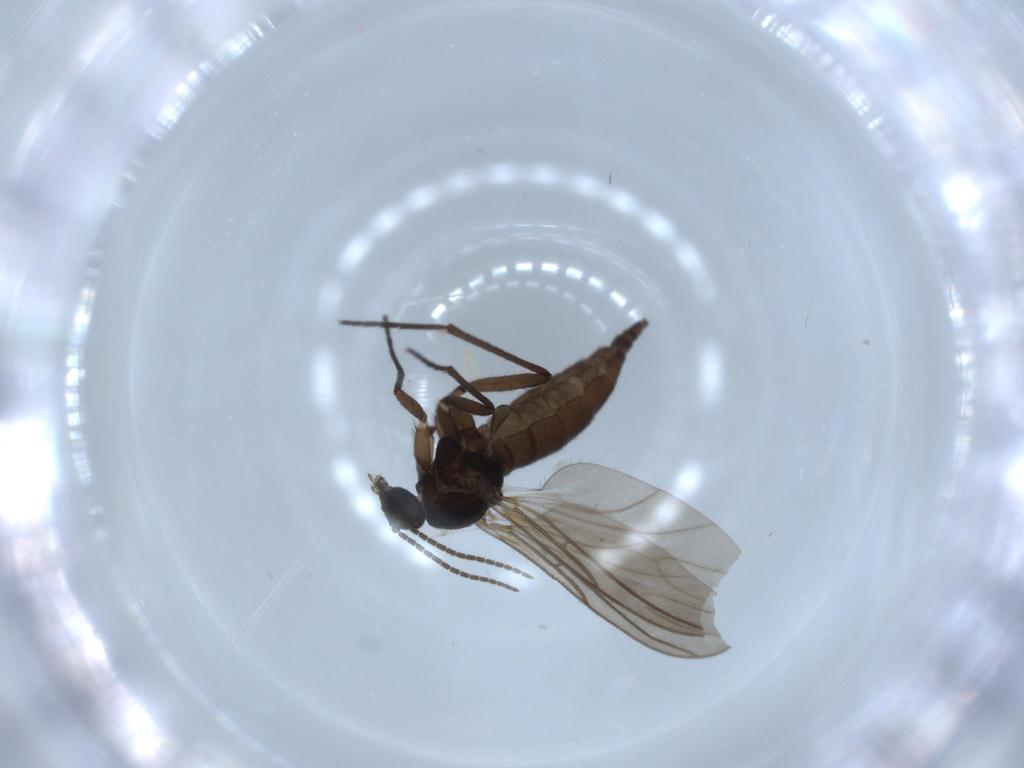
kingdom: Animalia
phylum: Arthropoda
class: Insecta
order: Diptera
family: Sciaridae
